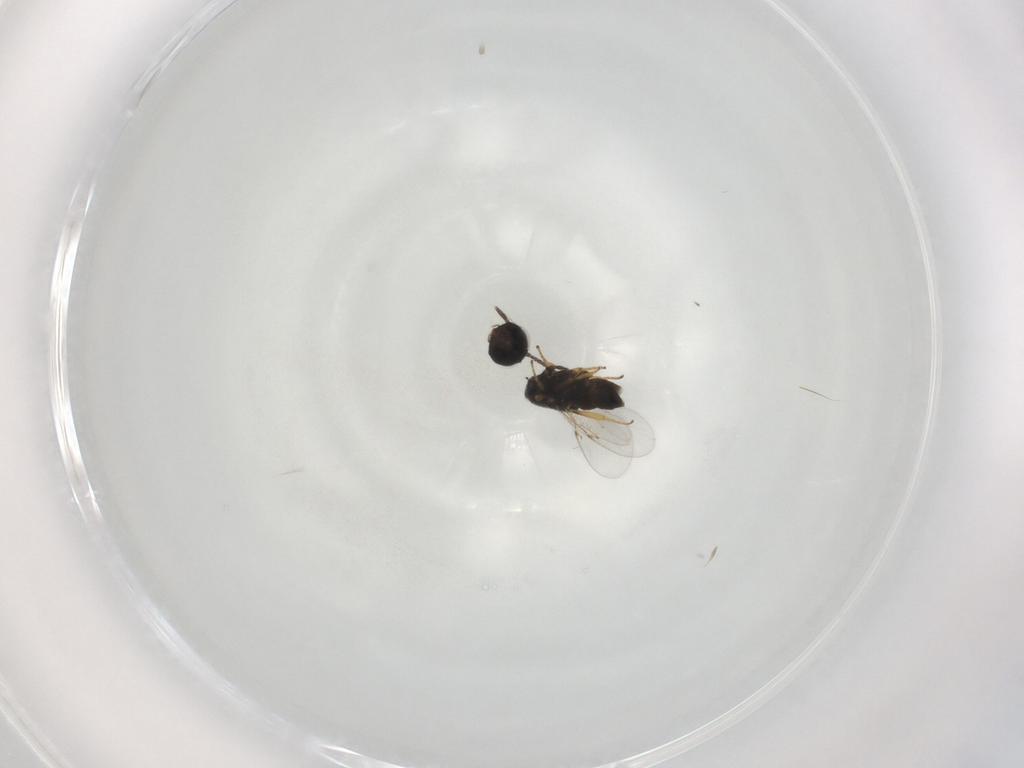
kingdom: Animalia
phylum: Arthropoda
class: Insecta
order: Hymenoptera
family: Encyrtidae
